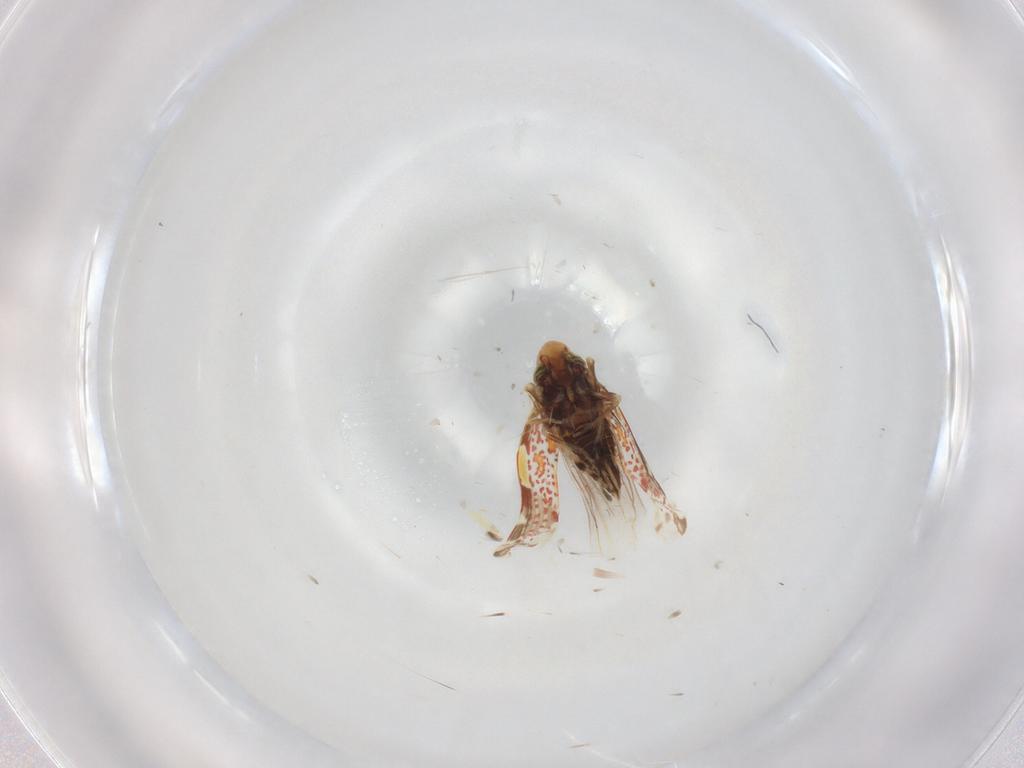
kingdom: Animalia
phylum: Arthropoda
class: Insecta
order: Hemiptera
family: Cicadellidae
